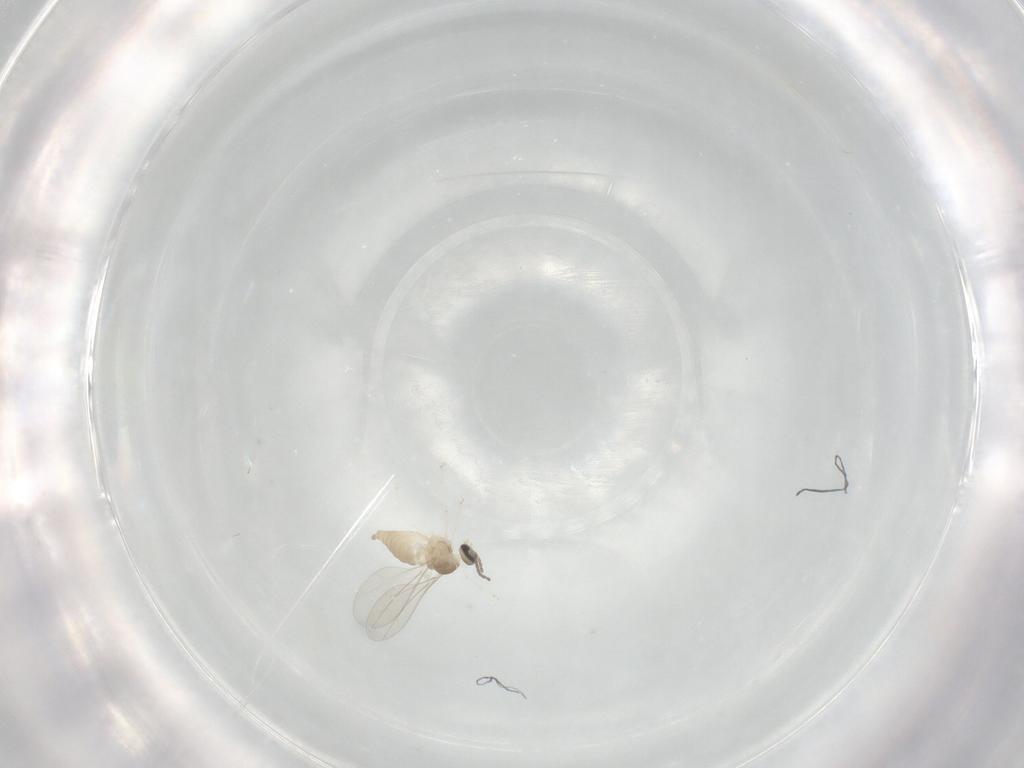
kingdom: Animalia
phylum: Arthropoda
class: Insecta
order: Diptera
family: Cecidomyiidae
